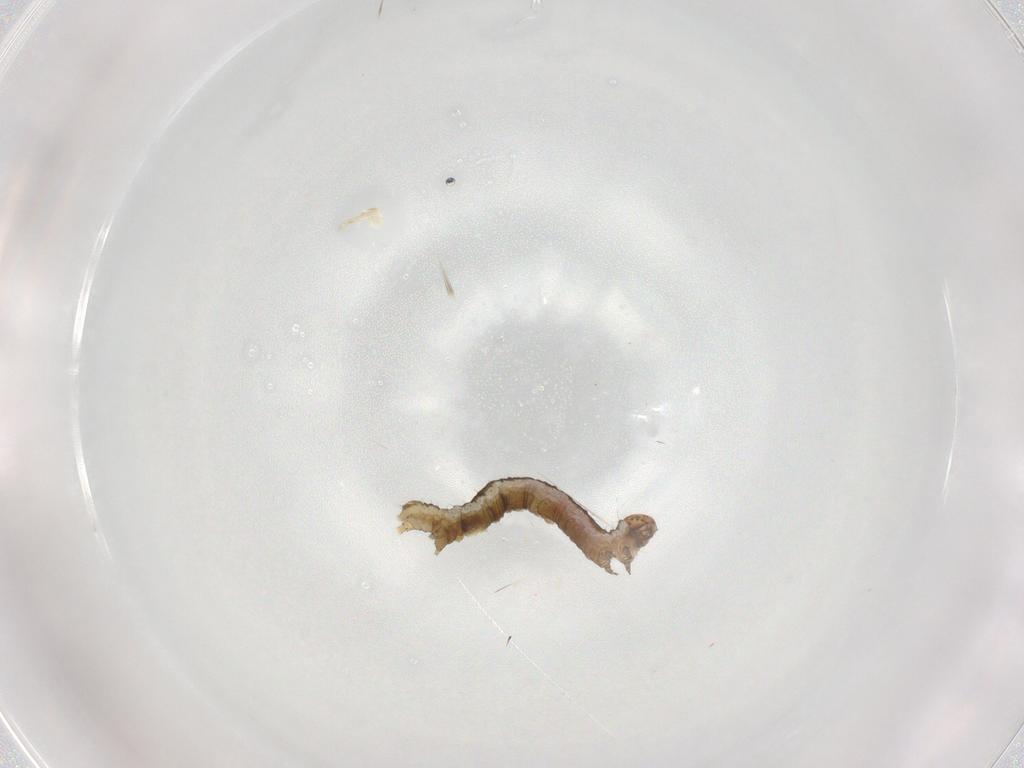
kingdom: Animalia
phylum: Arthropoda
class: Insecta
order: Lepidoptera
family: Geometridae
